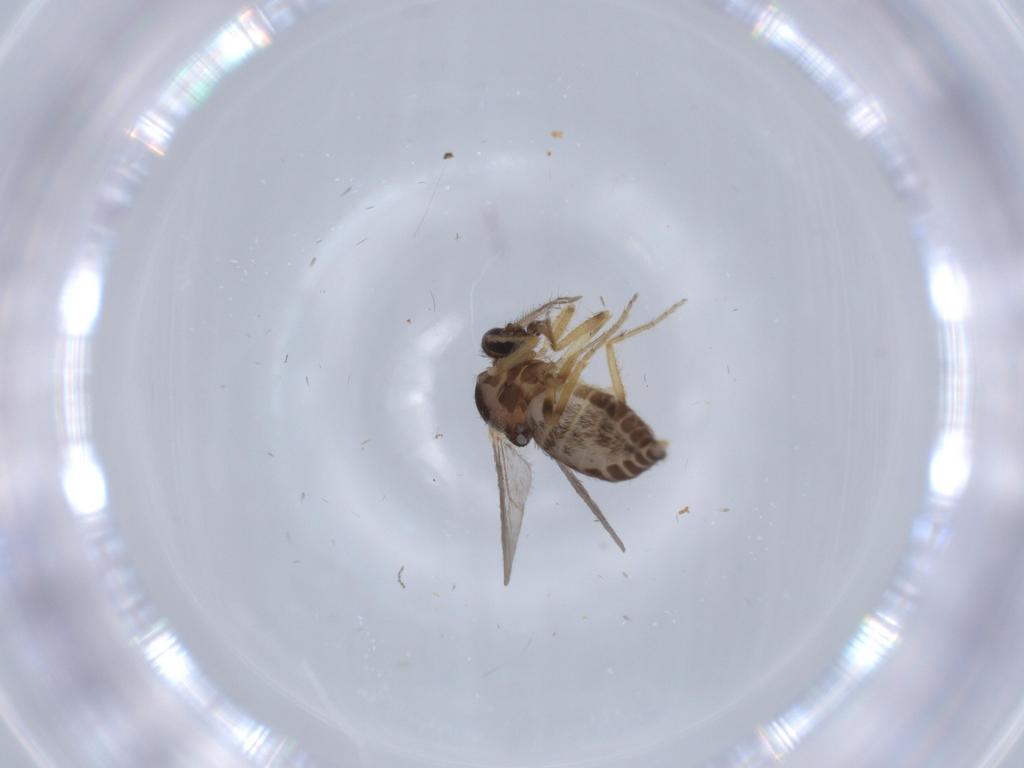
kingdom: Animalia
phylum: Arthropoda
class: Insecta
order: Diptera
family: Ceratopogonidae
